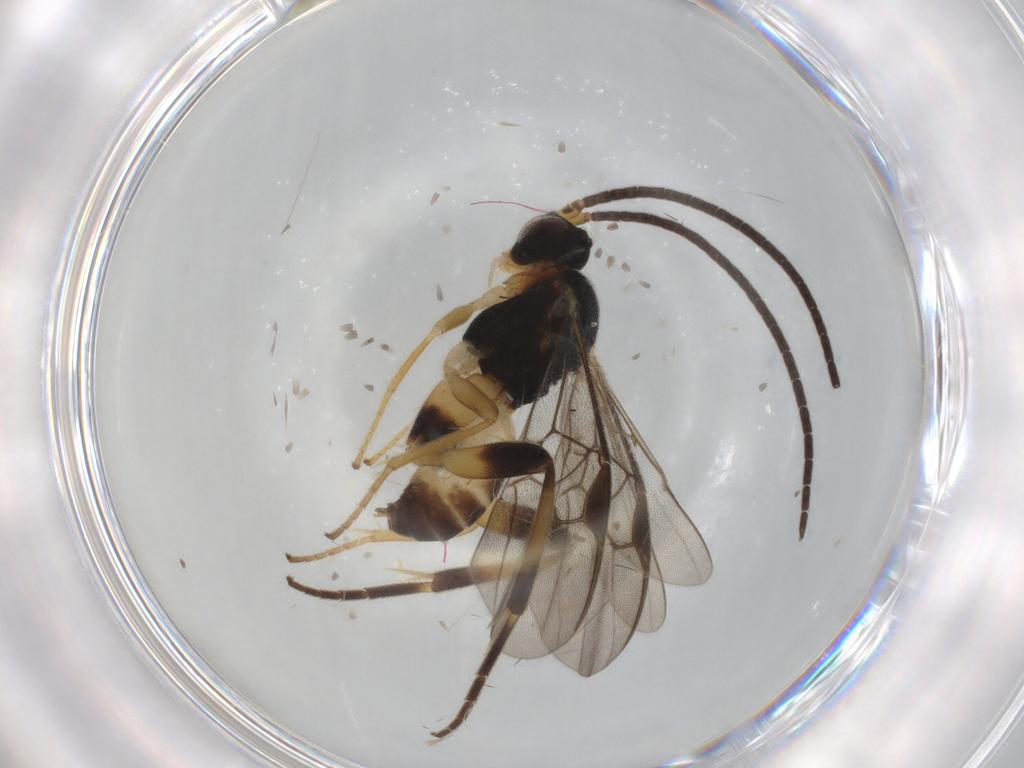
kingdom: Animalia
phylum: Arthropoda
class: Insecta
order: Hymenoptera
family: Braconidae
